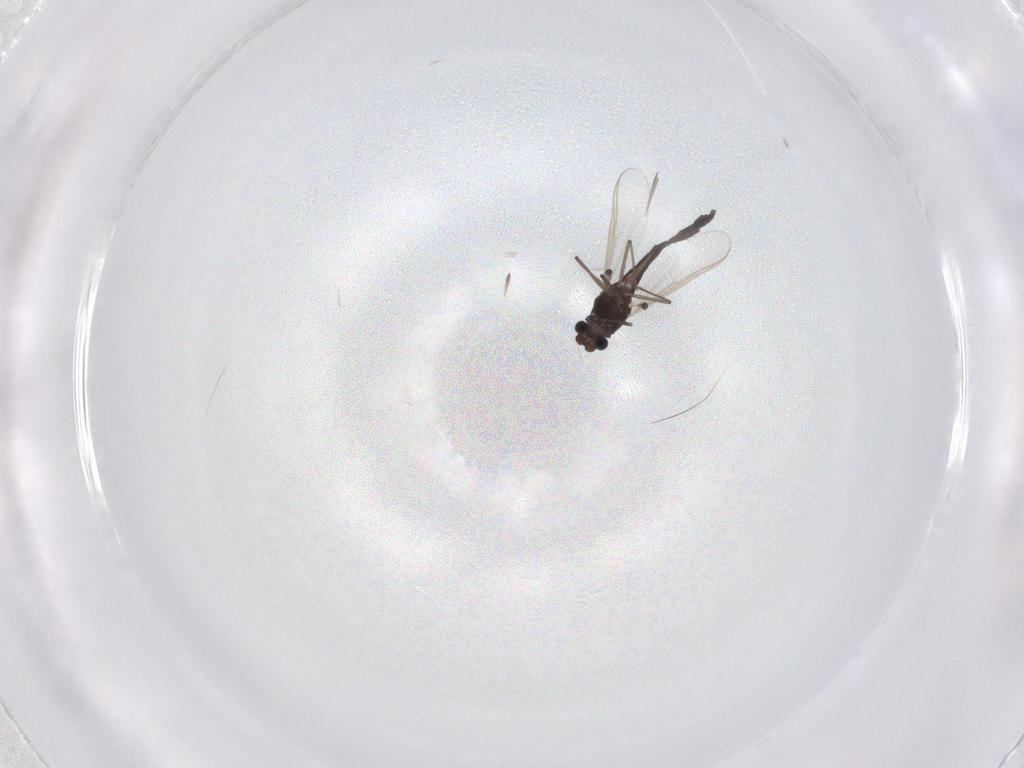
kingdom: Animalia
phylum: Arthropoda
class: Insecta
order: Diptera
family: Chironomidae
